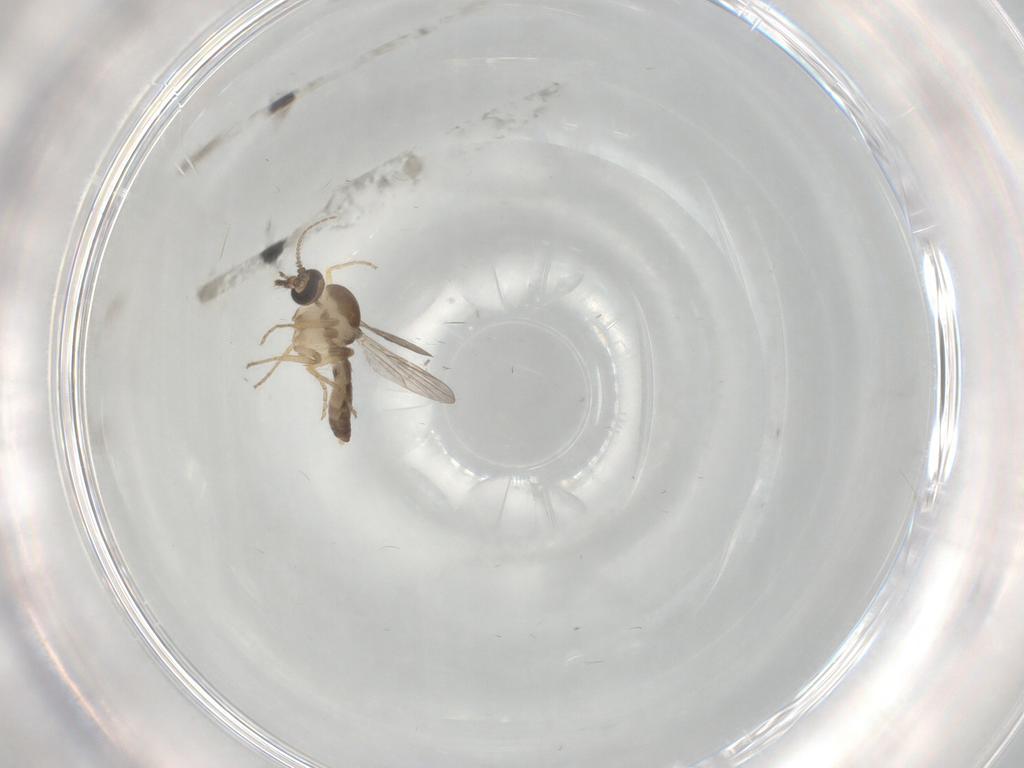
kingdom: Animalia
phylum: Arthropoda
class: Insecta
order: Diptera
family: Ceratopogonidae
